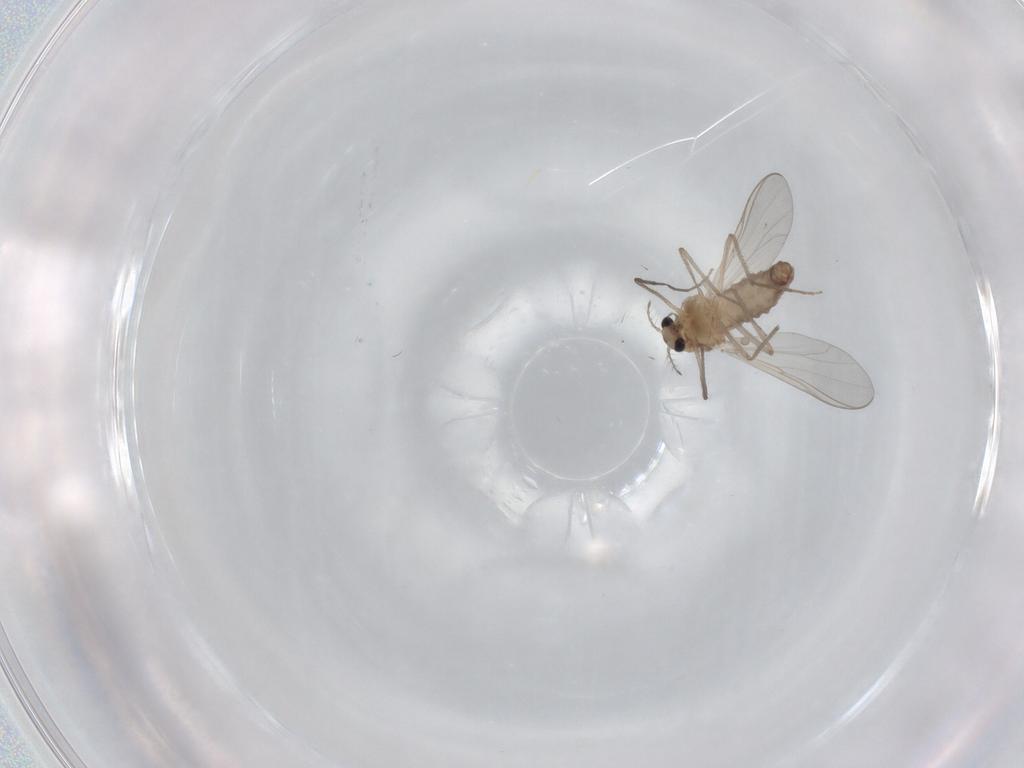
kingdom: Animalia
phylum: Arthropoda
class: Insecta
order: Diptera
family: Chironomidae
